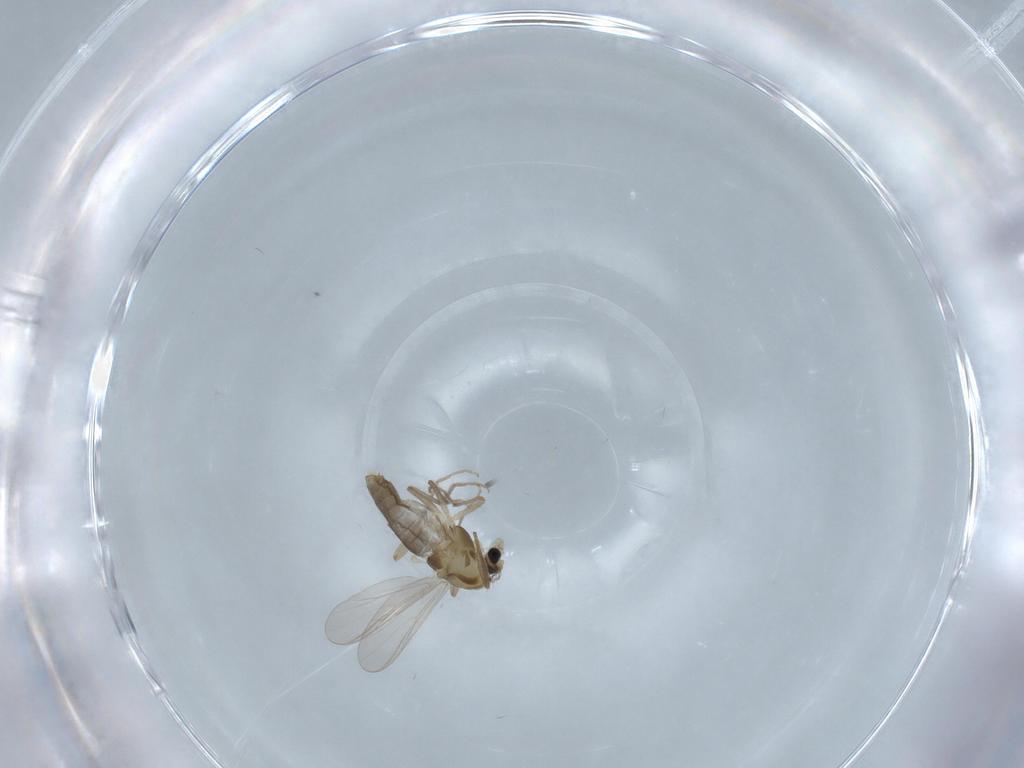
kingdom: Animalia
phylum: Arthropoda
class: Insecta
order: Diptera
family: Chironomidae
